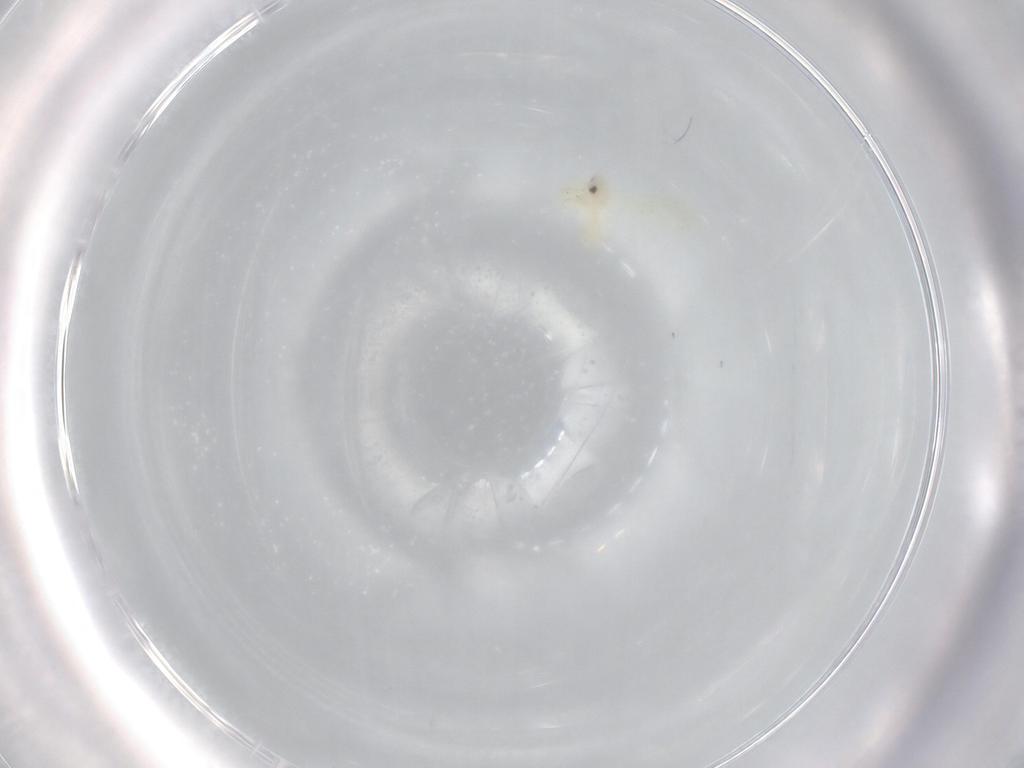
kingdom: Animalia
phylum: Arthropoda
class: Insecta
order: Hemiptera
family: Aleyrodidae
